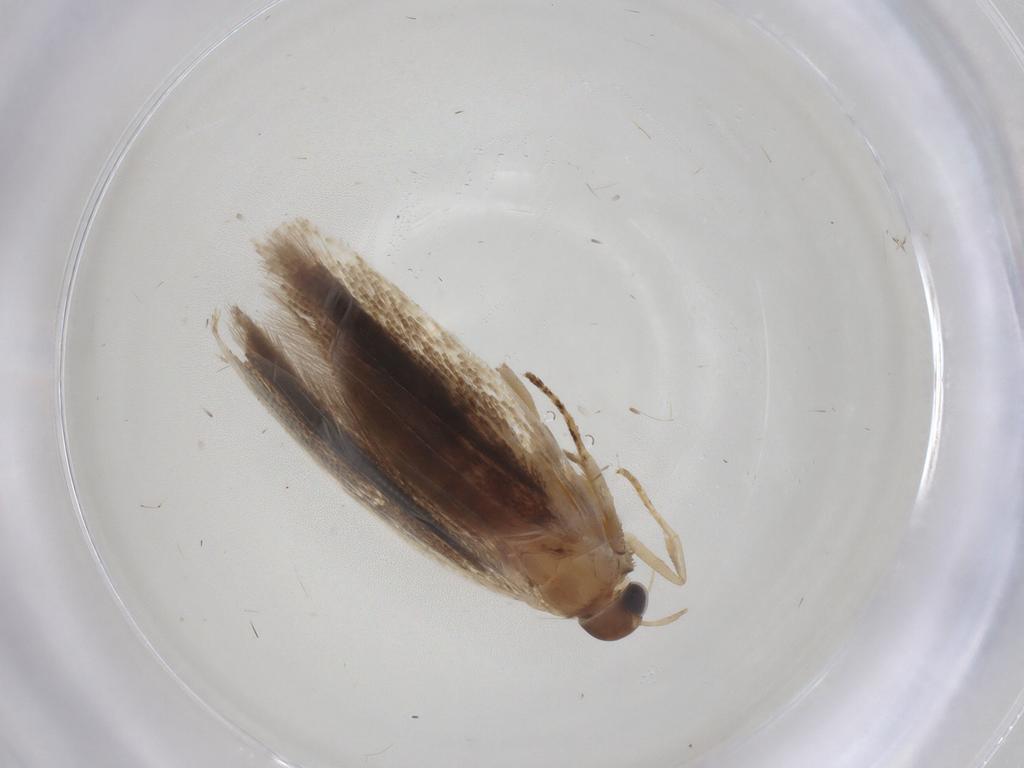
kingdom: Animalia
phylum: Arthropoda
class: Insecta
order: Lepidoptera
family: Gelechiidae
